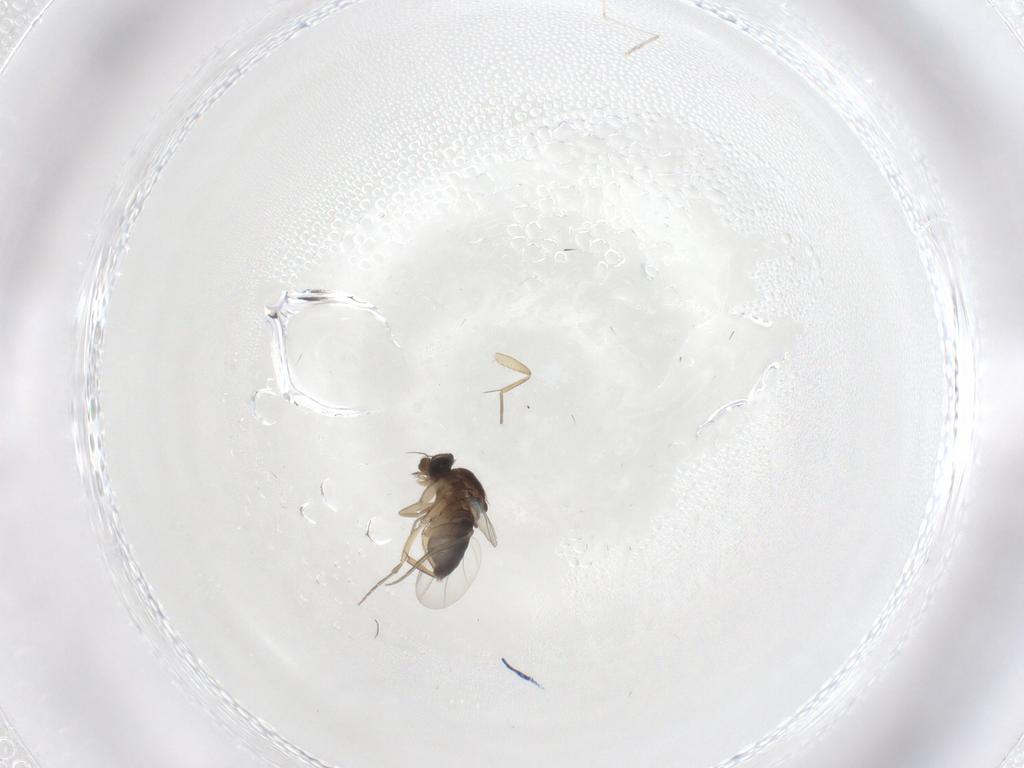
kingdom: Animalia
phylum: Arthropoda
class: Insecta
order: Diptera
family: Cecidomyiidae
